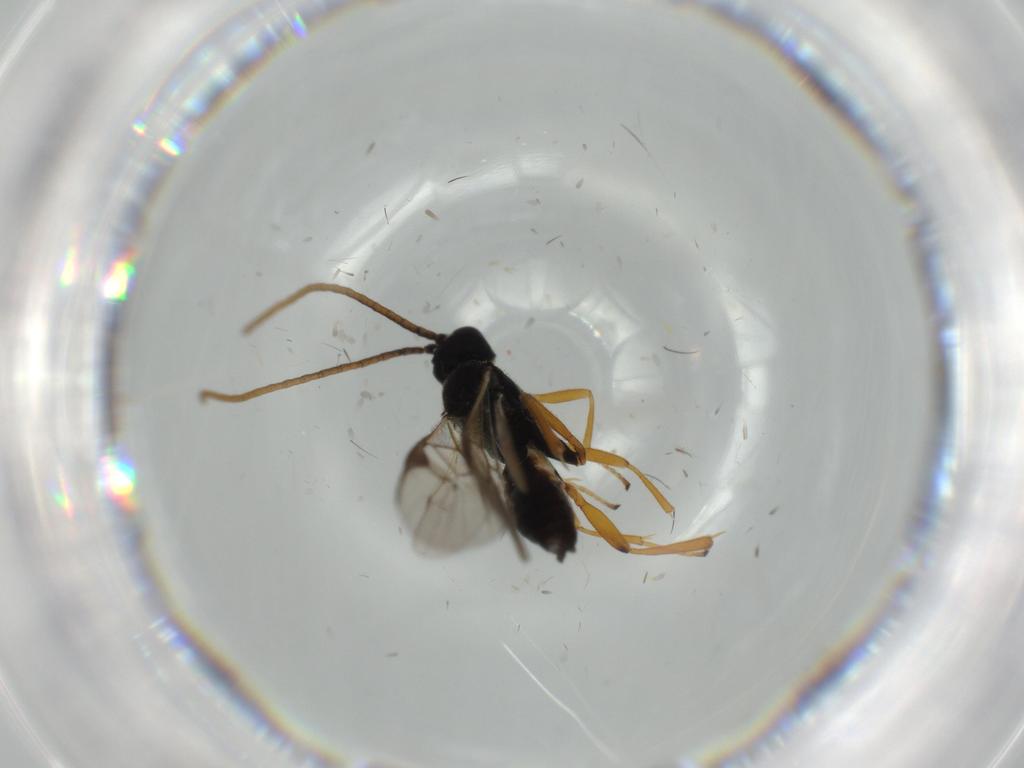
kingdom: Animalia
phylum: Arthropoda
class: Insecta
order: Hymenoptera
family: Braconidae
